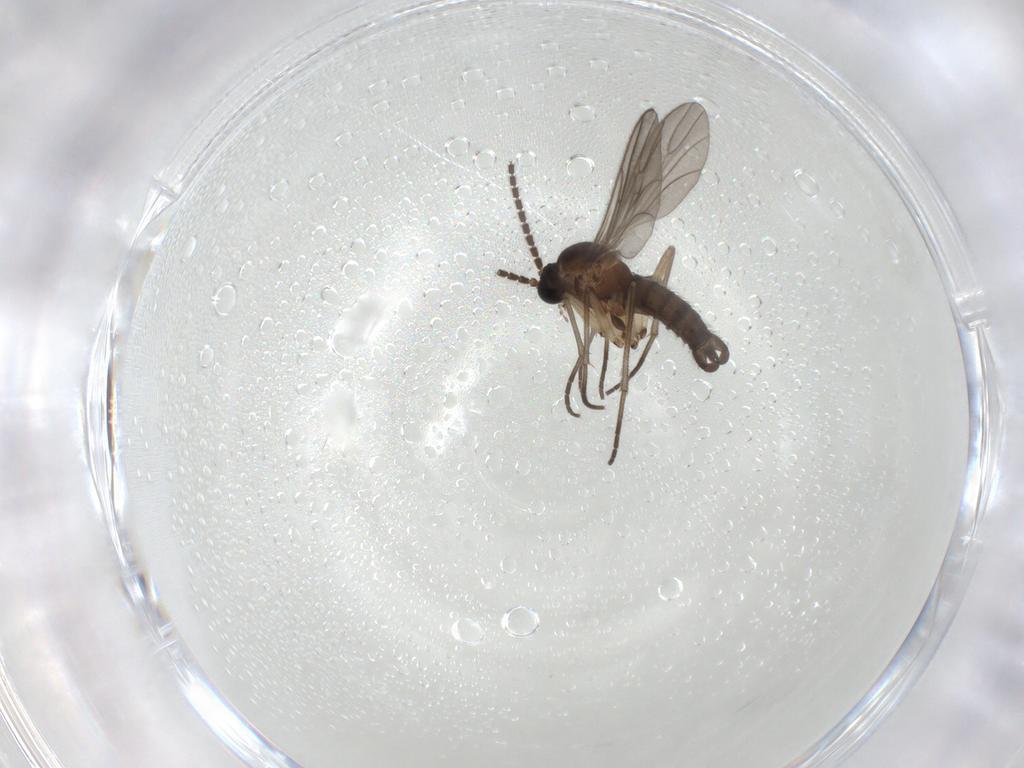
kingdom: Animalia
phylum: Arthropoda
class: Insecta
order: Diptera
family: Sciaridae
